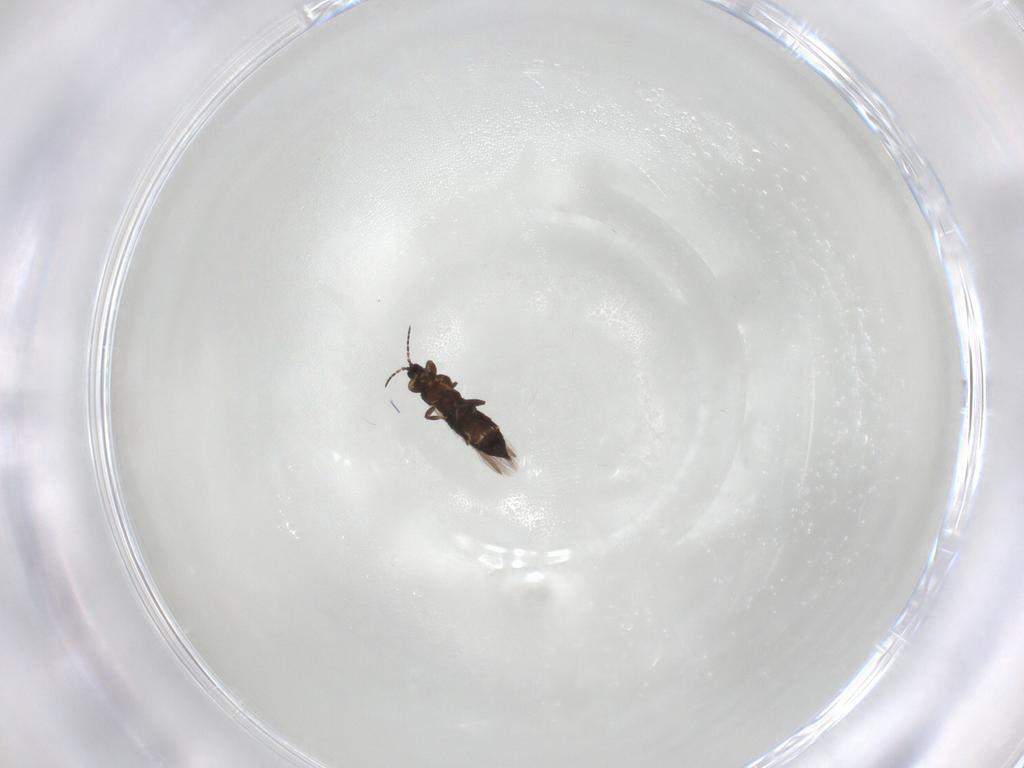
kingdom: Animalia
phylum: Arthropoda
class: Insecta
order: Thysanoptera
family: Heterothripidae
